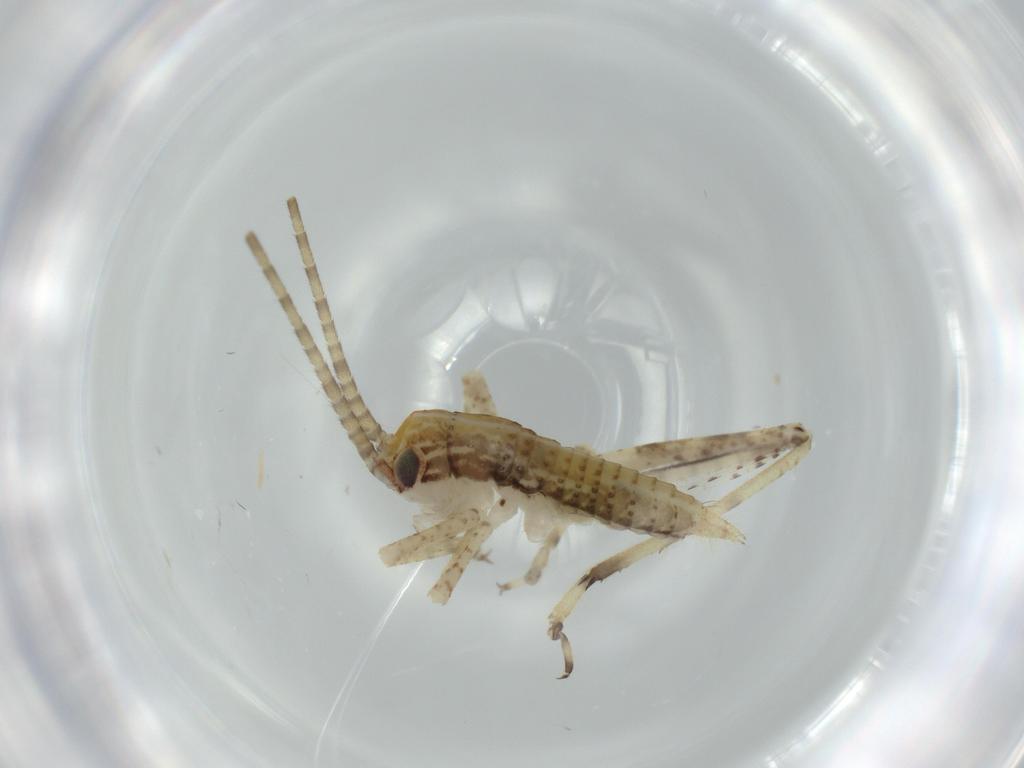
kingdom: Animalia
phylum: Arthropoda
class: Insecta
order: Orthoptera
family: Gryllidae
